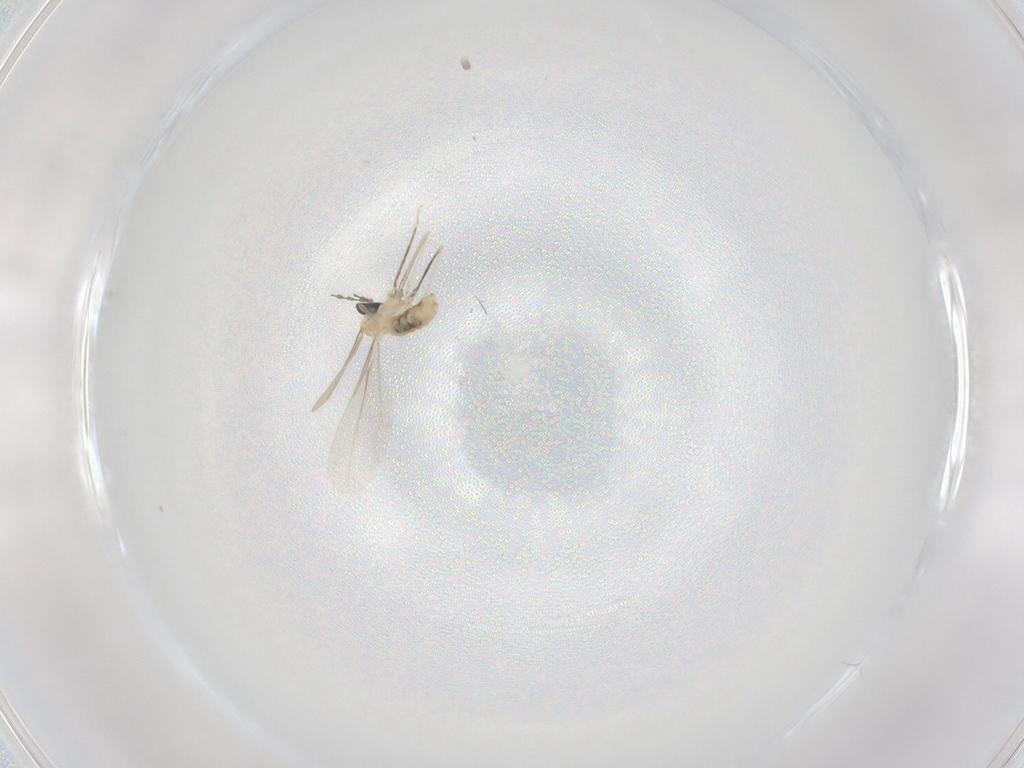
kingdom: Animalia
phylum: Arthropoda
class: Insecta
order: Diptera
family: Cecidomyiidae
